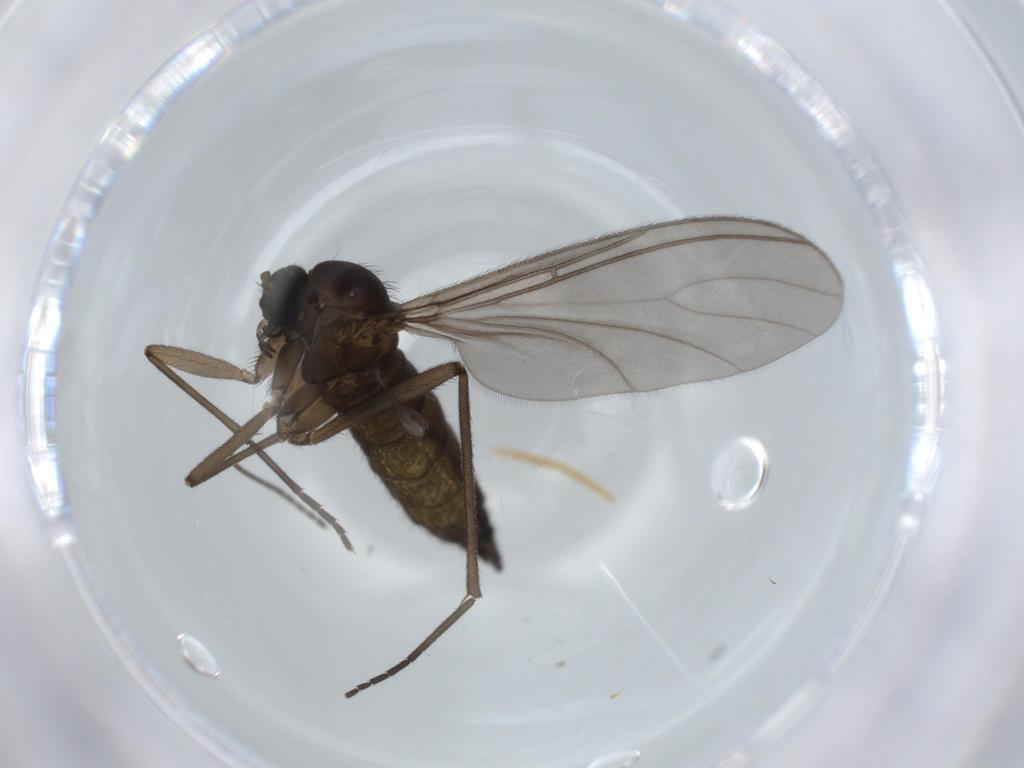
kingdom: Animalia
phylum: Arthropoda
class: Insecta
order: Diptera
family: Sciaridae
